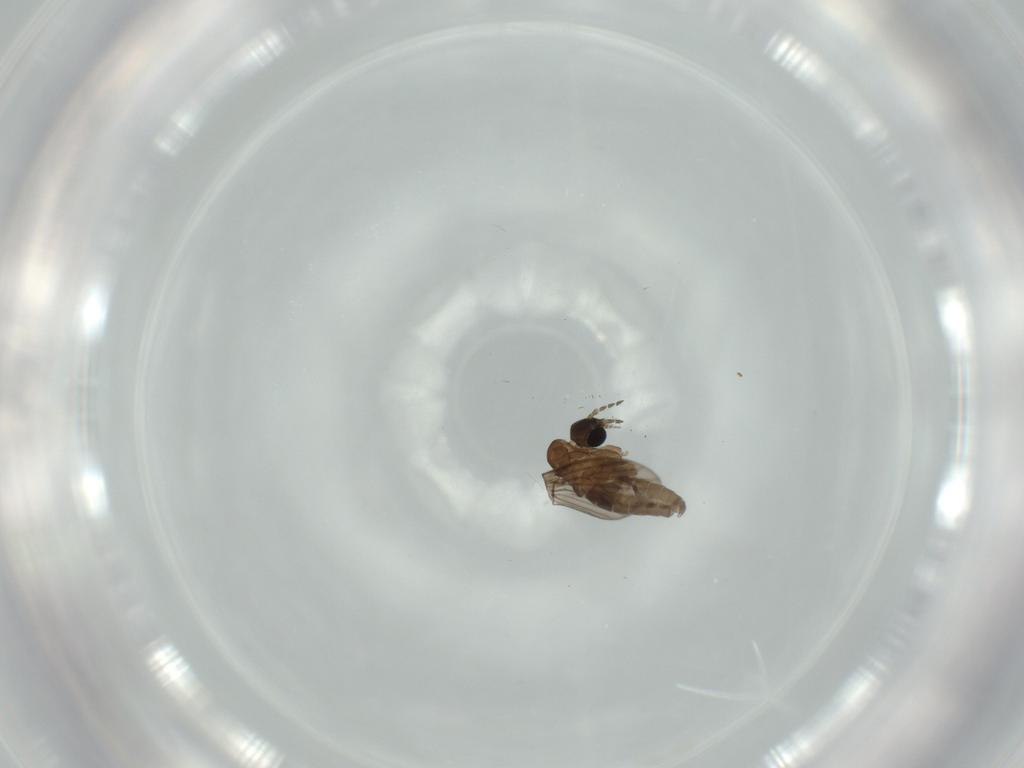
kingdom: Animalia
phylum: Arthropoda
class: Insecta
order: Diptera
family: Psychodidae
